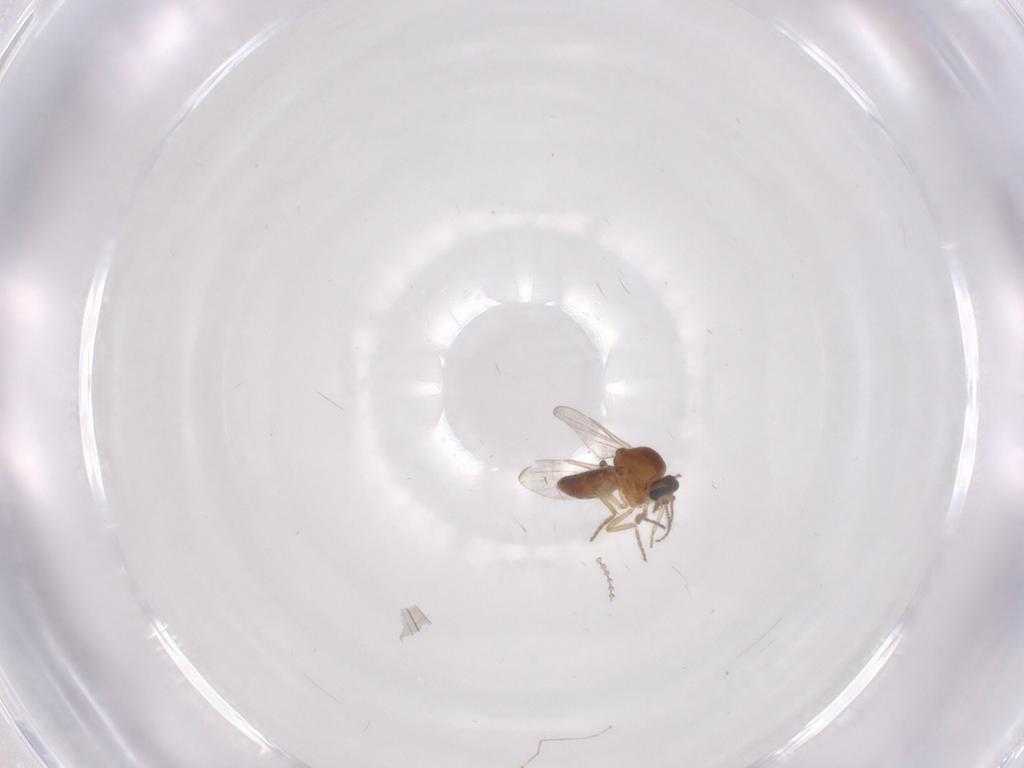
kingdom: Animalia
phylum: Arthropoda
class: Insecta
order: Diptera
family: Ceratopogonidae
